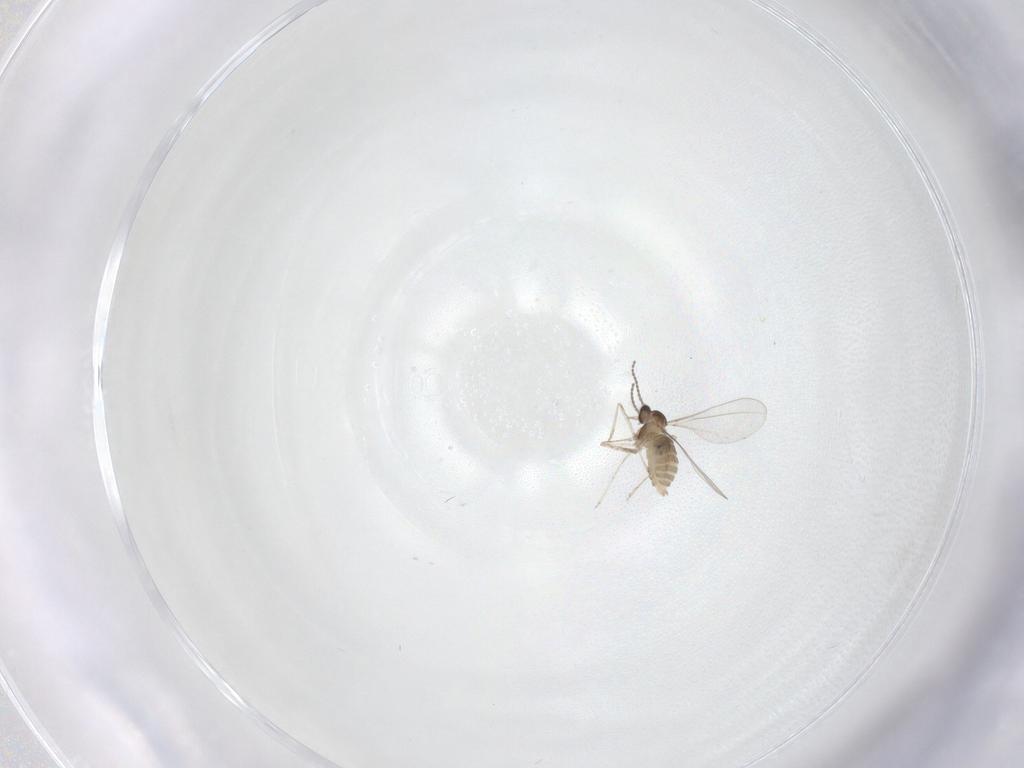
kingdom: Animalia
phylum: Arthropoda
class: Insecta
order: Diptera
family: Cecidomyiidae
